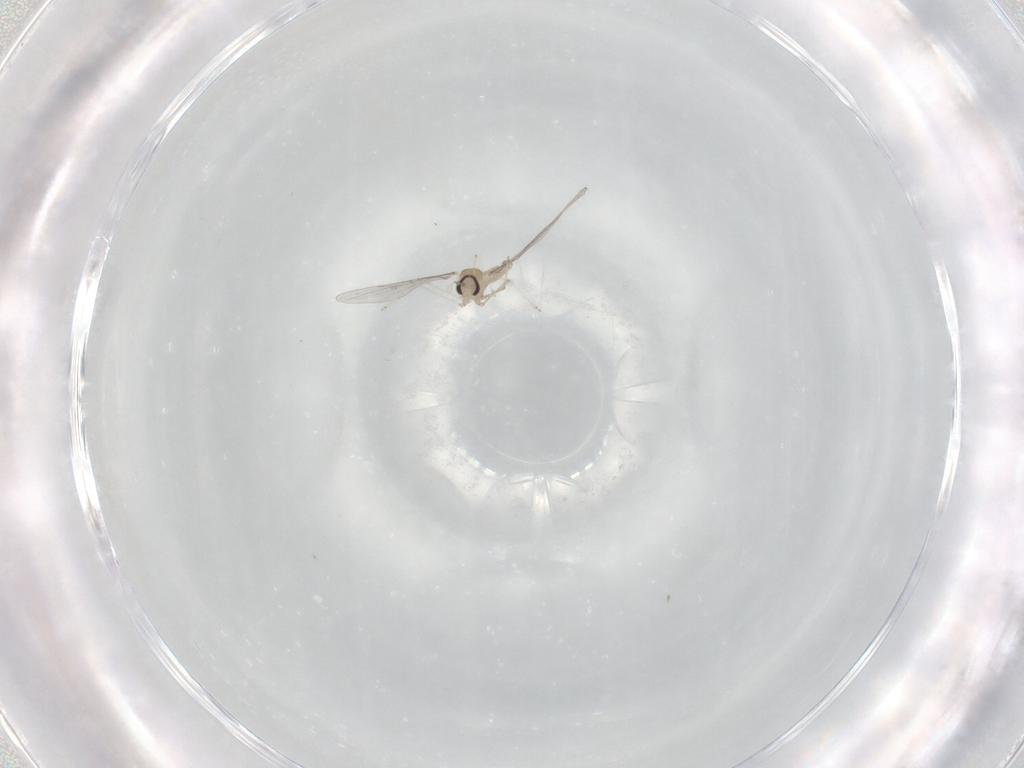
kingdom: Animalia
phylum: Arthropoda
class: Insecta
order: Diptera
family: Cecidomyiidae
